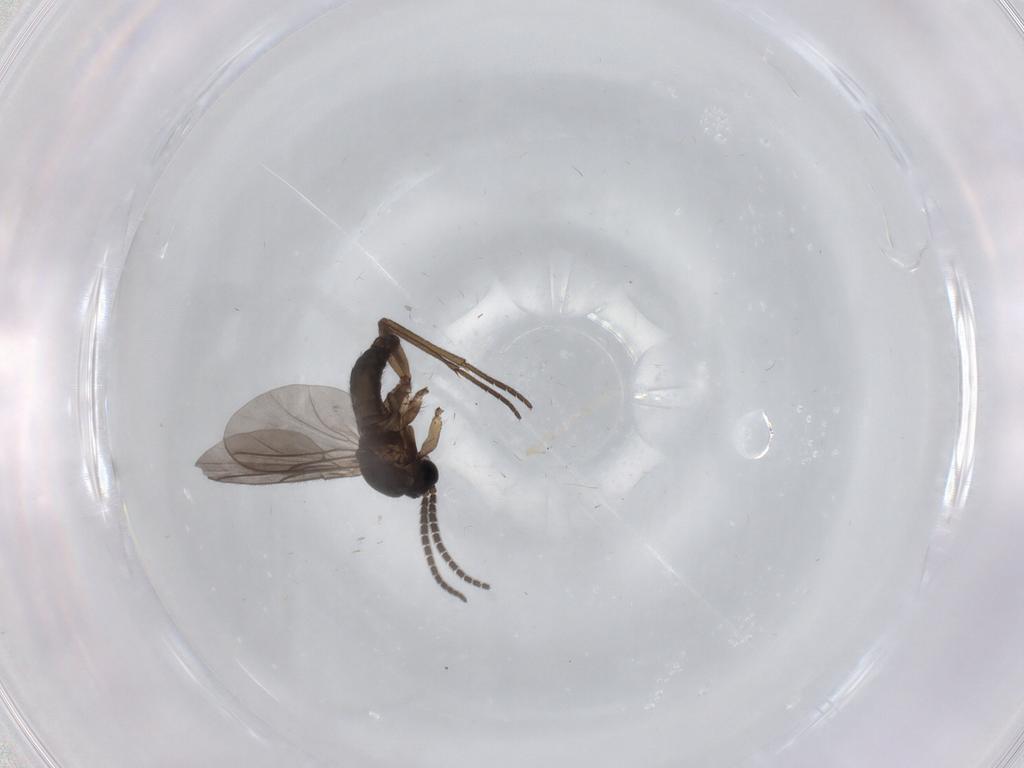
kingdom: Animalia
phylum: Arthropoda
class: Insecta
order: Diptera
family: Sciaridae
